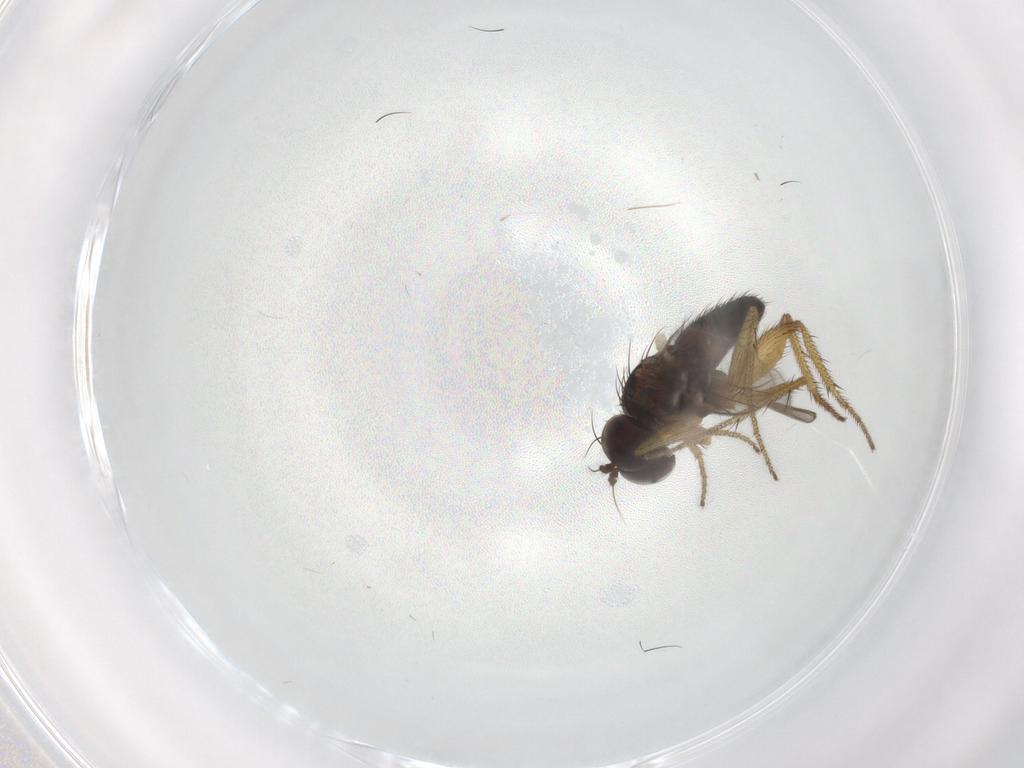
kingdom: Animalia
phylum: Arthropoda
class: Insecta
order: Diptera
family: Dolichopodidae
